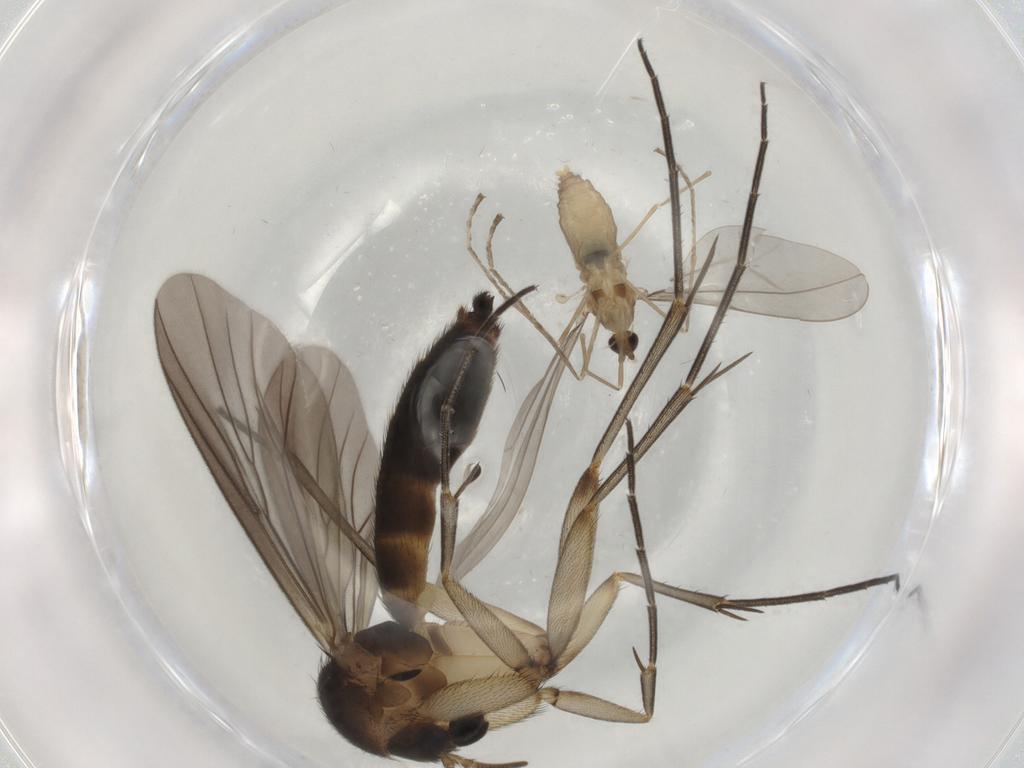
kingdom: Animalia
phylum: Arthropoda
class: Insecta
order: Diptera
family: Mycetophilidae
